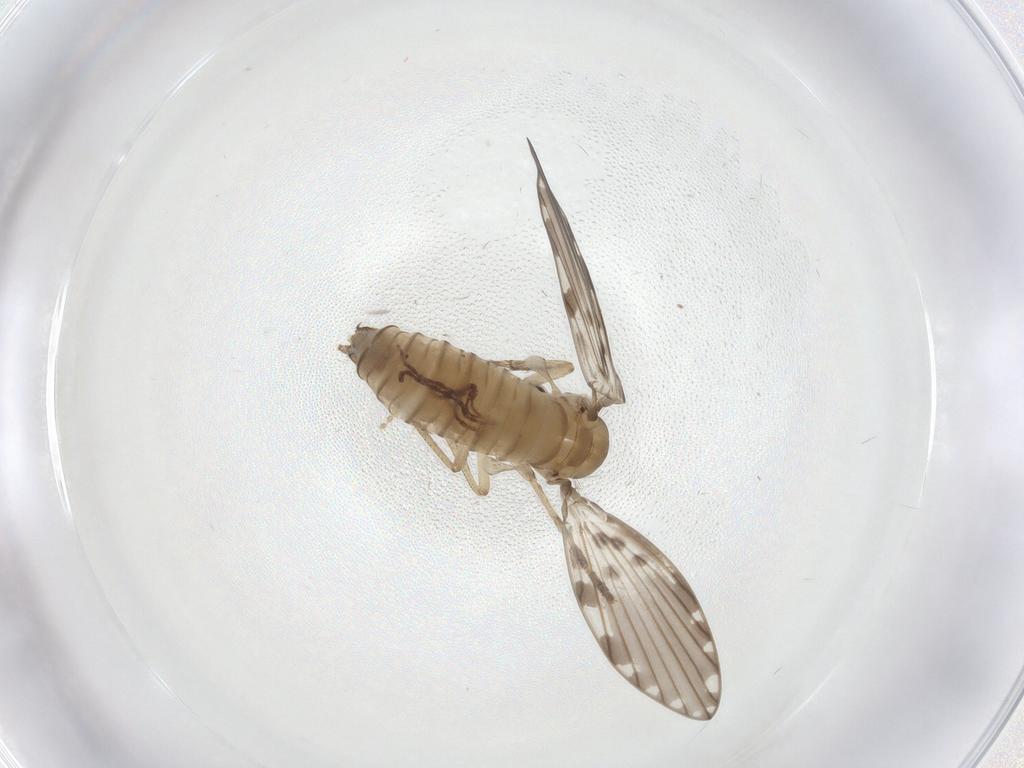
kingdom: Animalia
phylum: Arthropoda
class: Insecta
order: Diptera
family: Psychodidae
